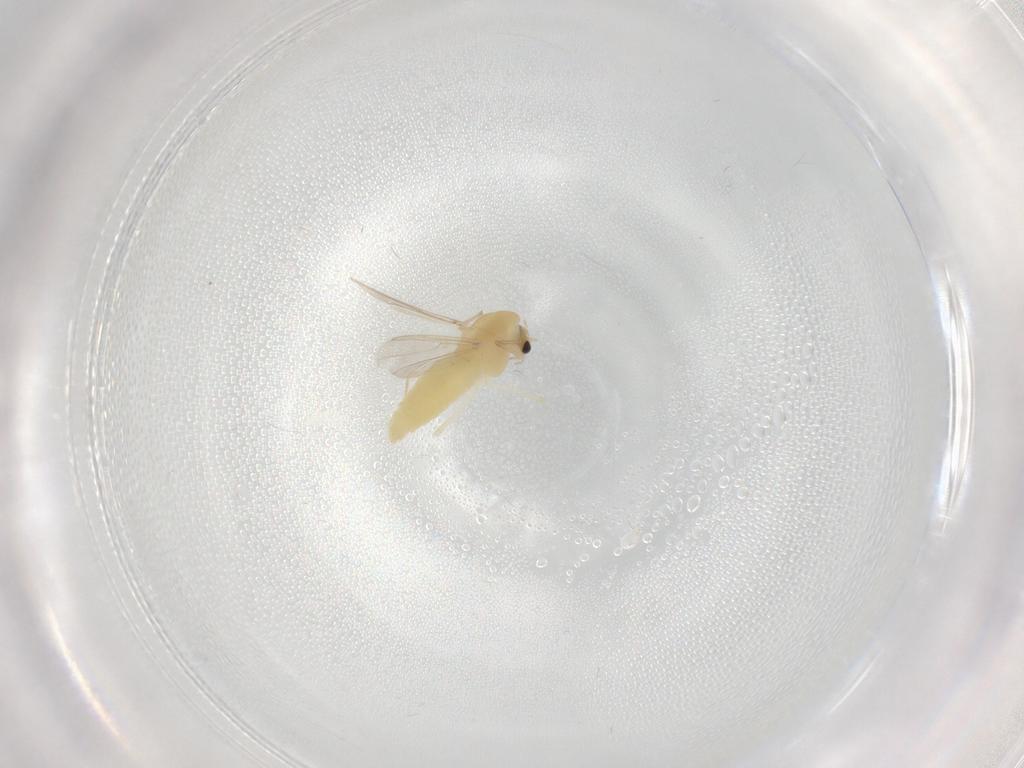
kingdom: Animalia
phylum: Arthropoda
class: Insecta
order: Diptera
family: Chironomidae
